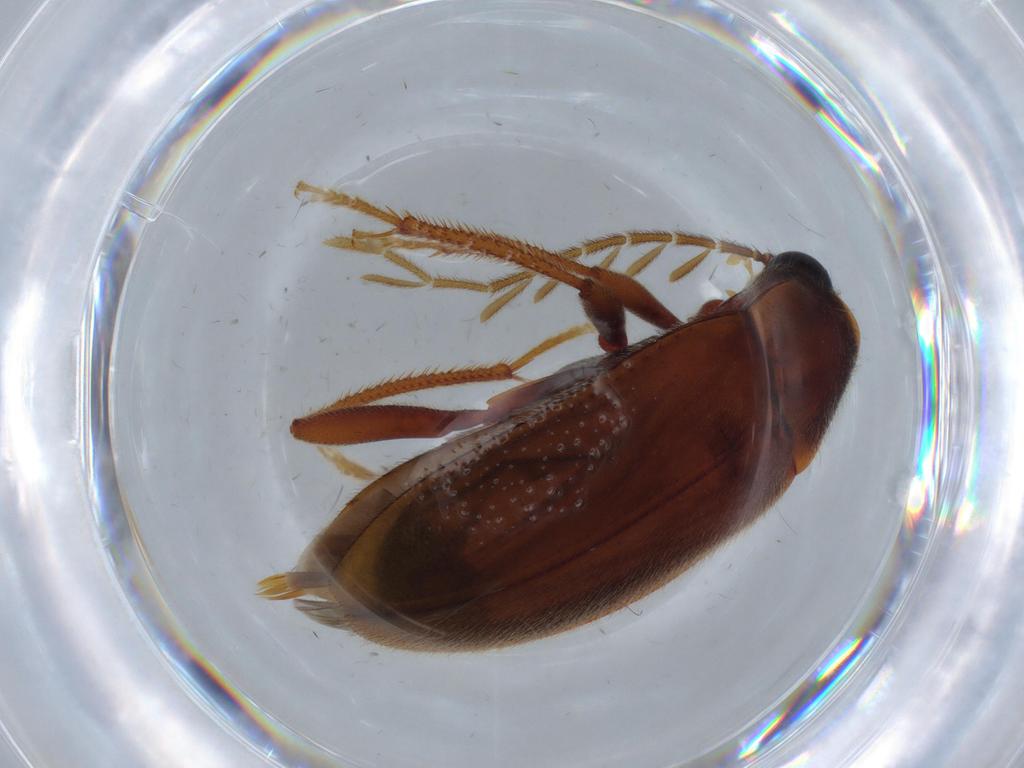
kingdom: Animalia
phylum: Arthropoda
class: Insecta
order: Coleoptera
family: Ptilodactylidae
